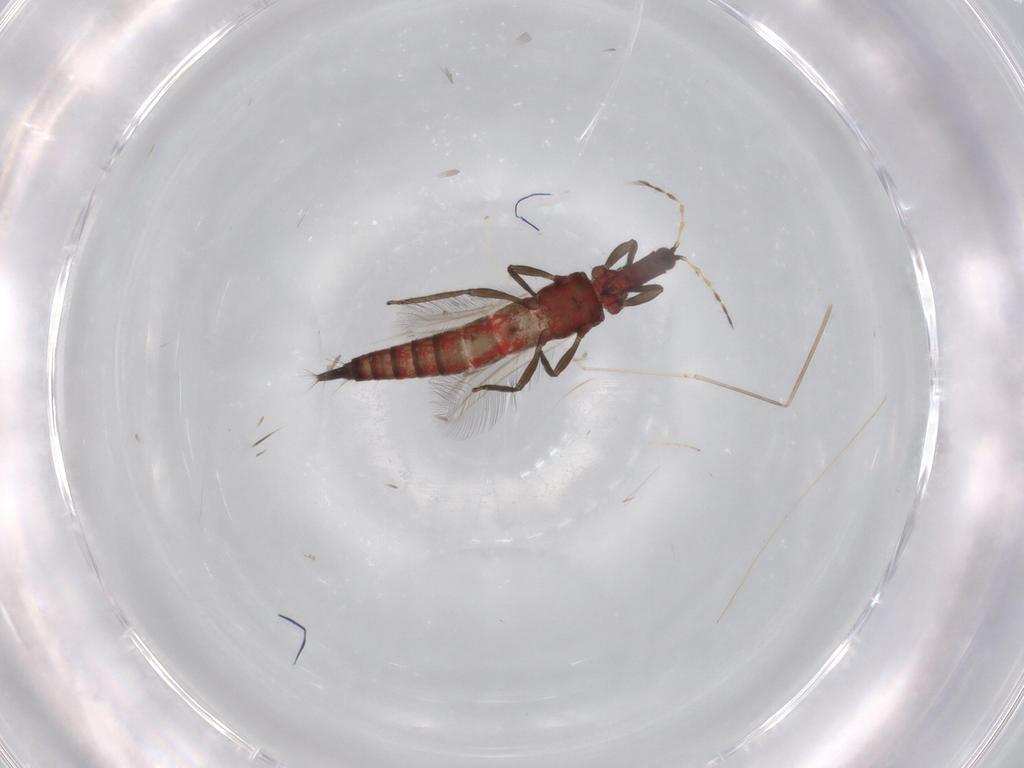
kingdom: Animalia
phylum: Arthropoda
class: Insecta
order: Thysanoptera
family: Phlaeothripidae
